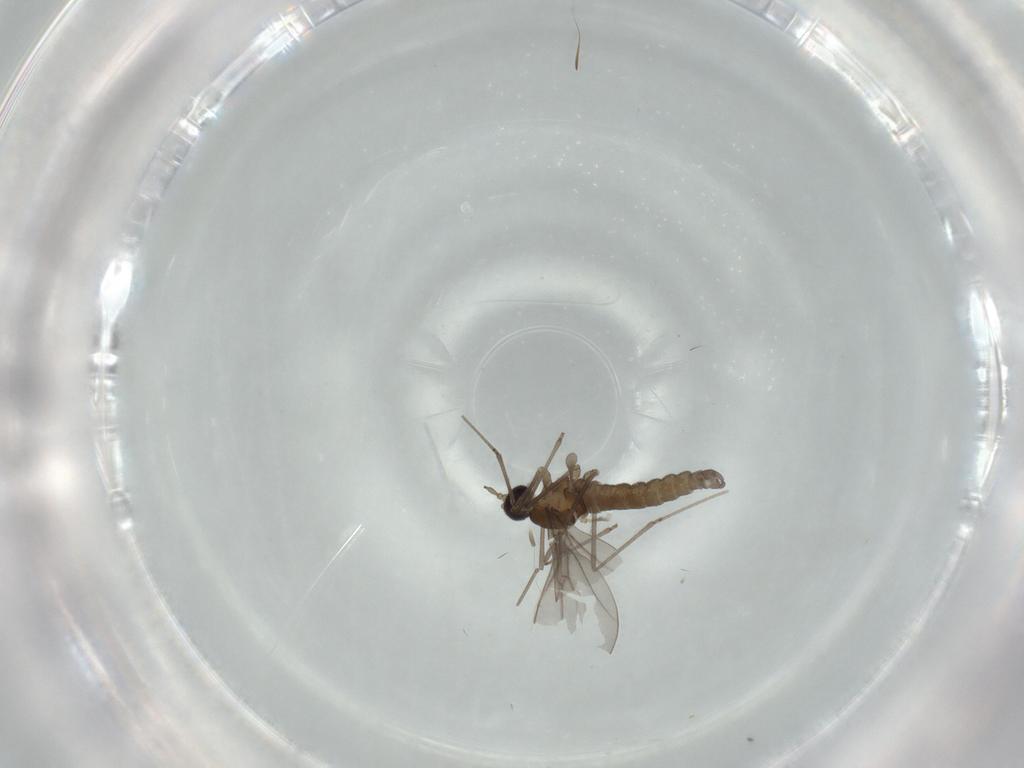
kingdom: Animalia
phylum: Arthropoda
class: Insecta
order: Diptera
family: Cecidomyiidae
